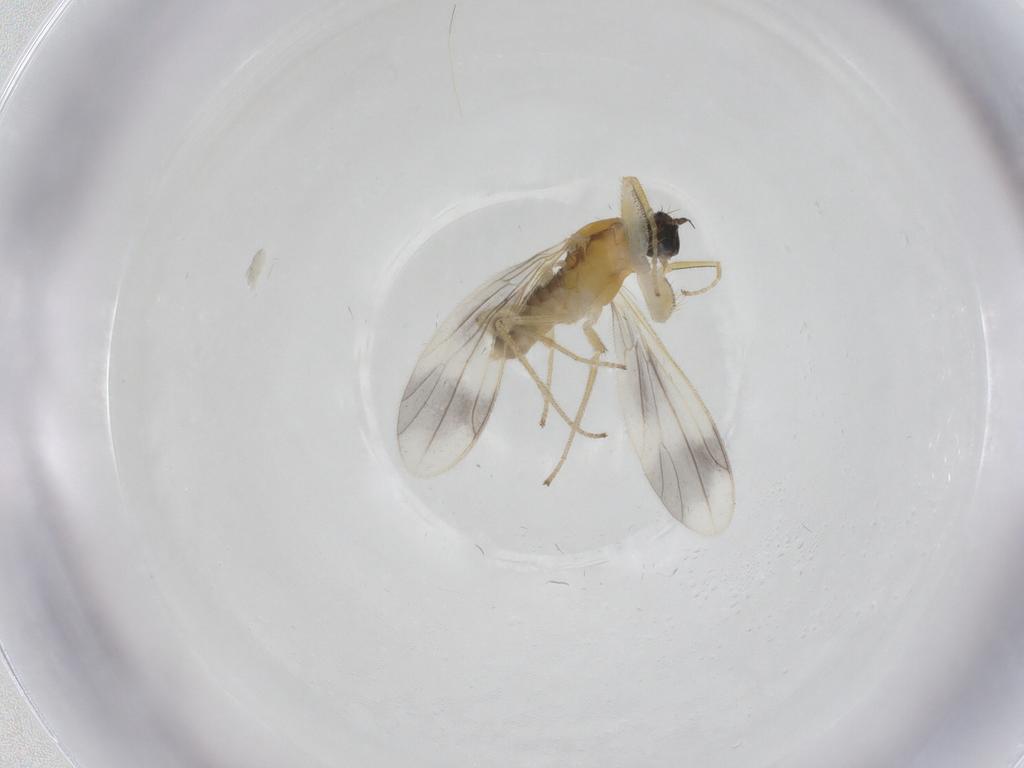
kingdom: Animalia
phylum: Arthropoda
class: Insecta
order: Diptera
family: Empididae
